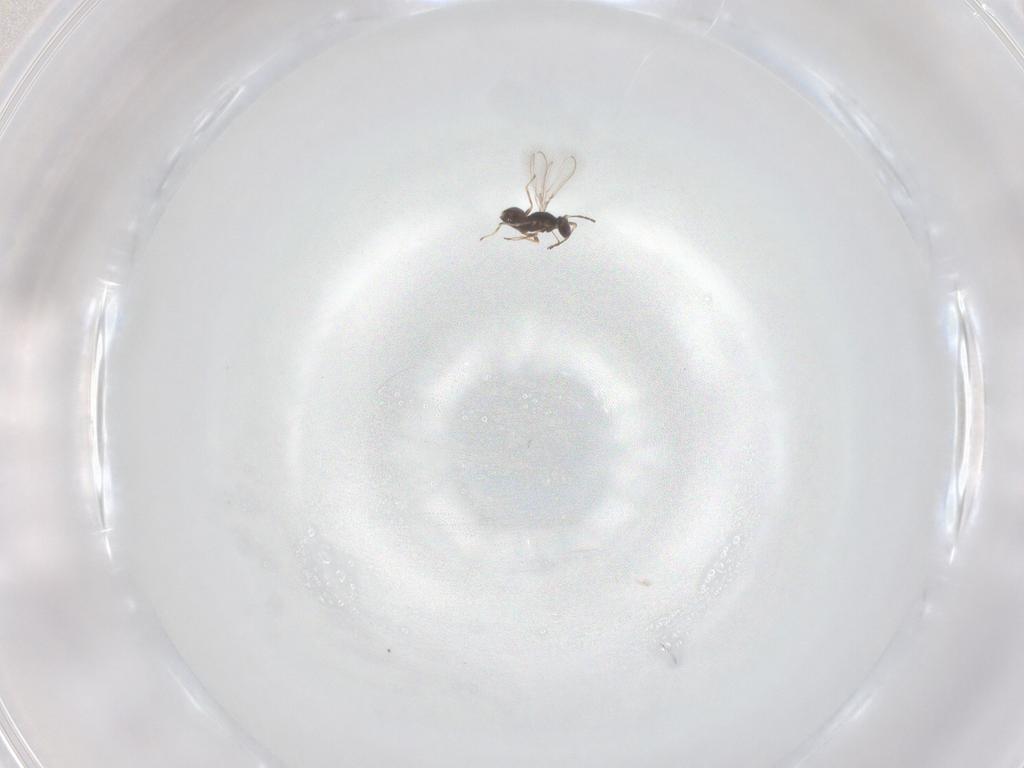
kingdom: Animalia
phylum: Arthropoda
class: Insecta
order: Hymenoptera
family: Mymaridae
